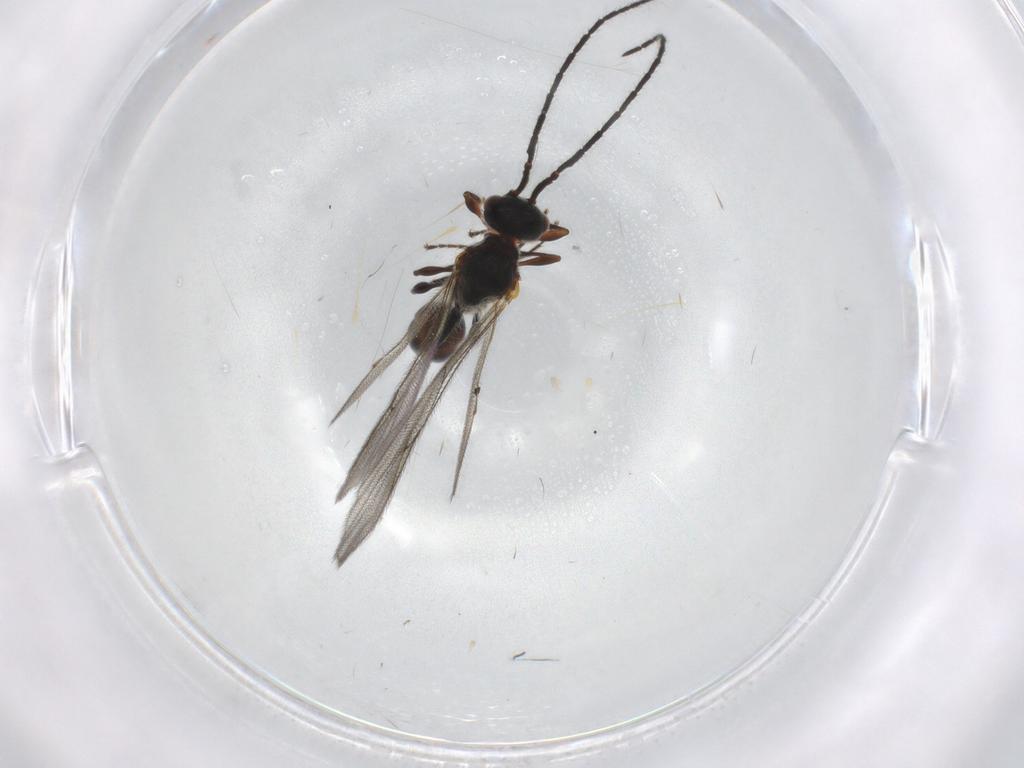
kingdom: Animalia
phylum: Arthropoda
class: Insecta
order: Hymenoptera
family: Diapriidae
